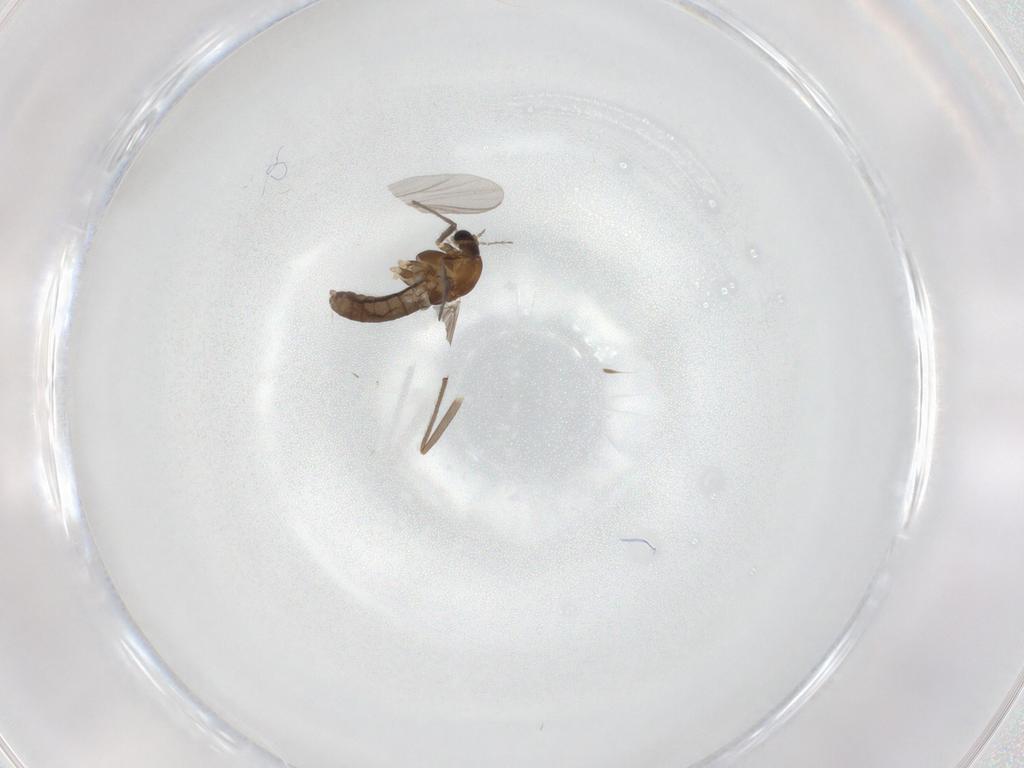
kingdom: Animalia
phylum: Arthropoda
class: Insecta
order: Diptera
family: Chironomidae
